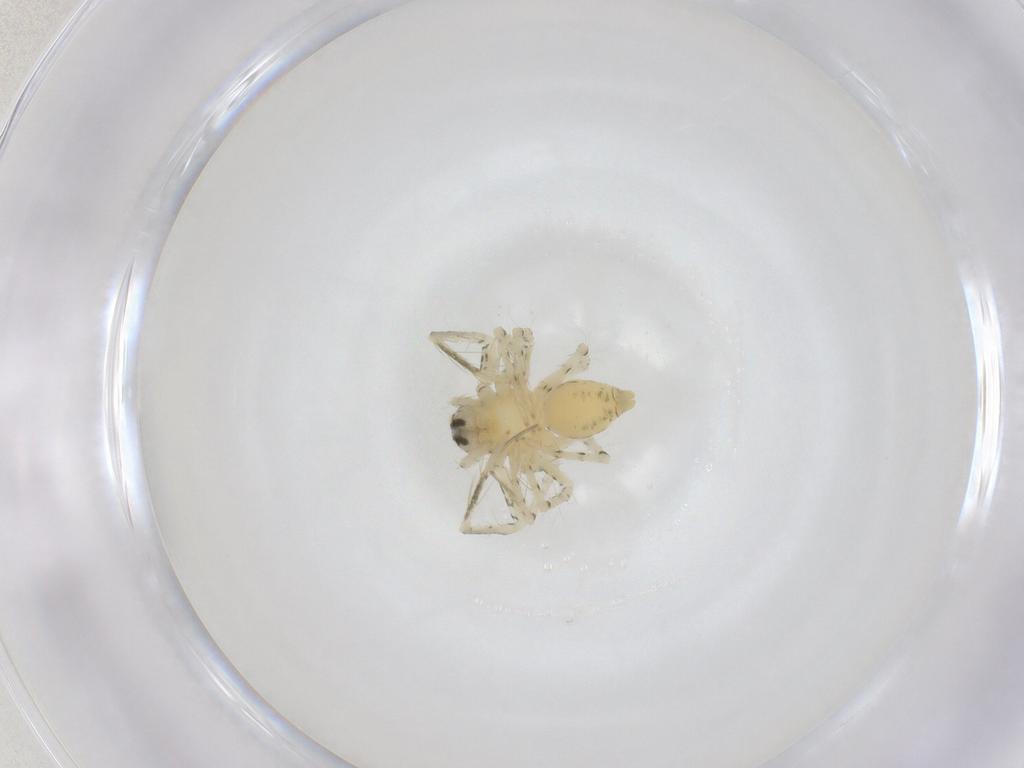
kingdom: Animalia
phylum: Arthropoda
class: Arachnida
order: Araneae
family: Oxyopidae
